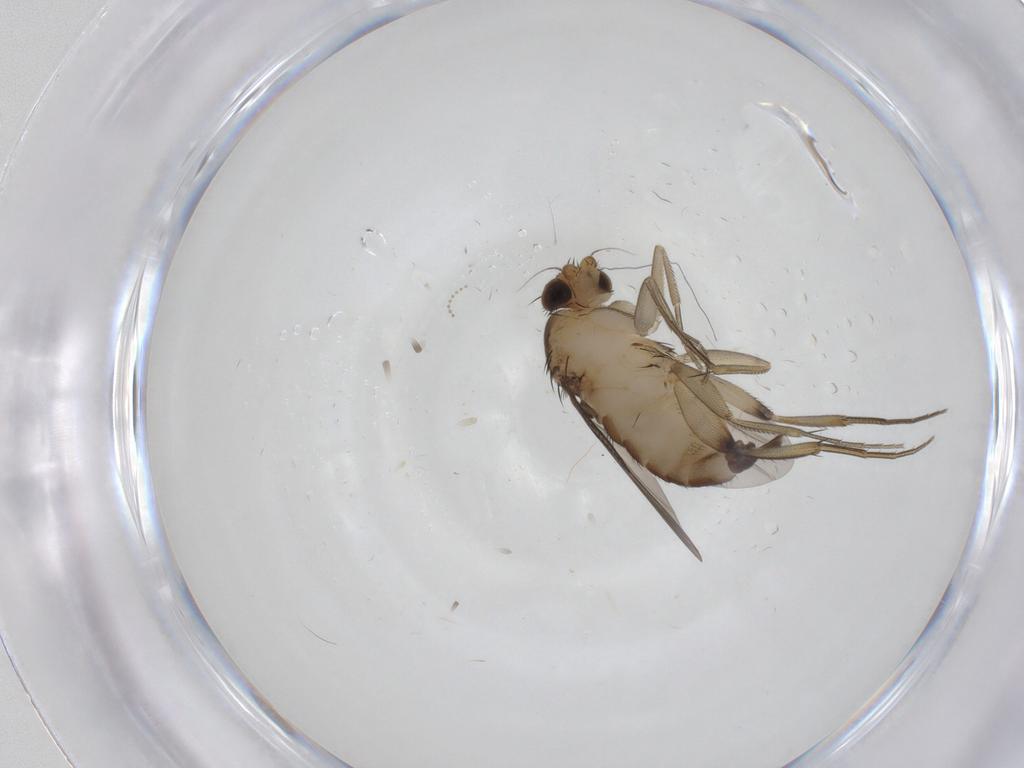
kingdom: Animalia
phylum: Arthropoda
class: Insecta
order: Diptera
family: Phoridae
